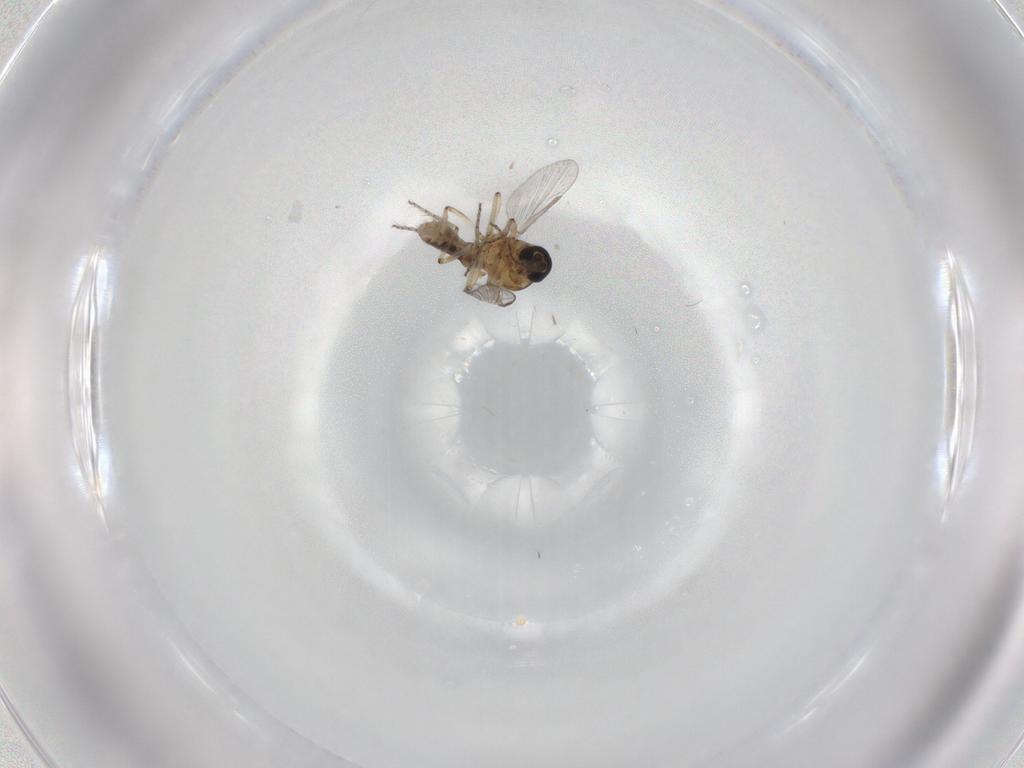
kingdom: Animalia
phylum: Arthropoda
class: Insecta
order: Diptera
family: Ceratopogonidae
